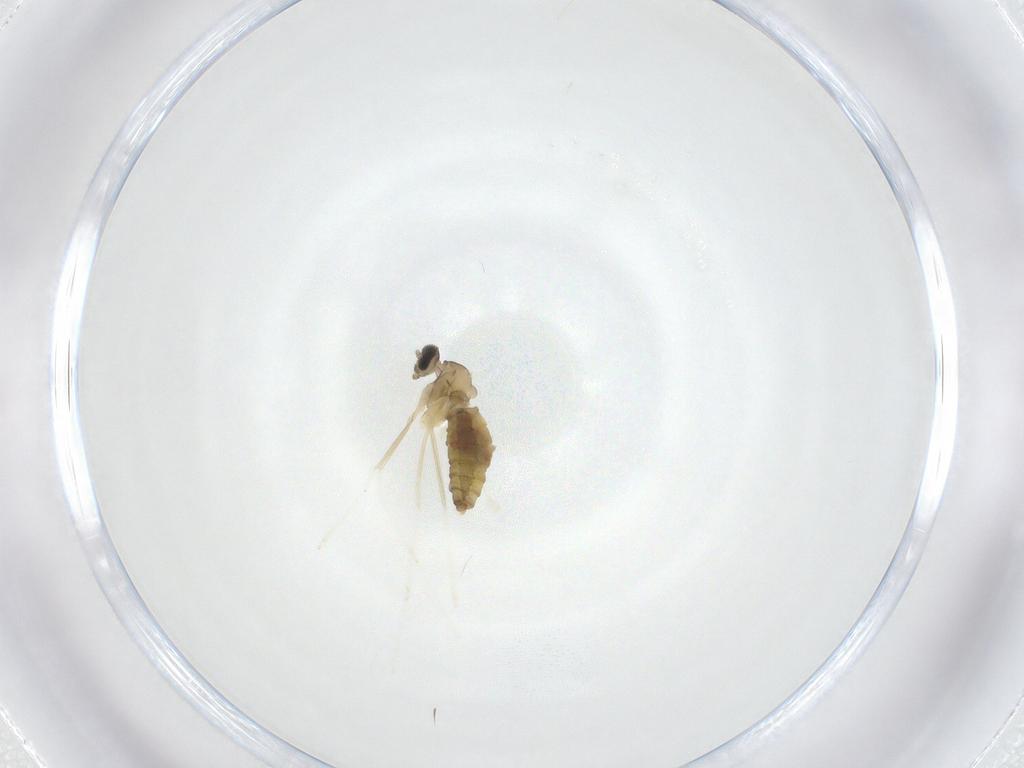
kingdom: Animalia
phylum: Arthropoda
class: Insecta
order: Diptera
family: Cecidomyiidae
